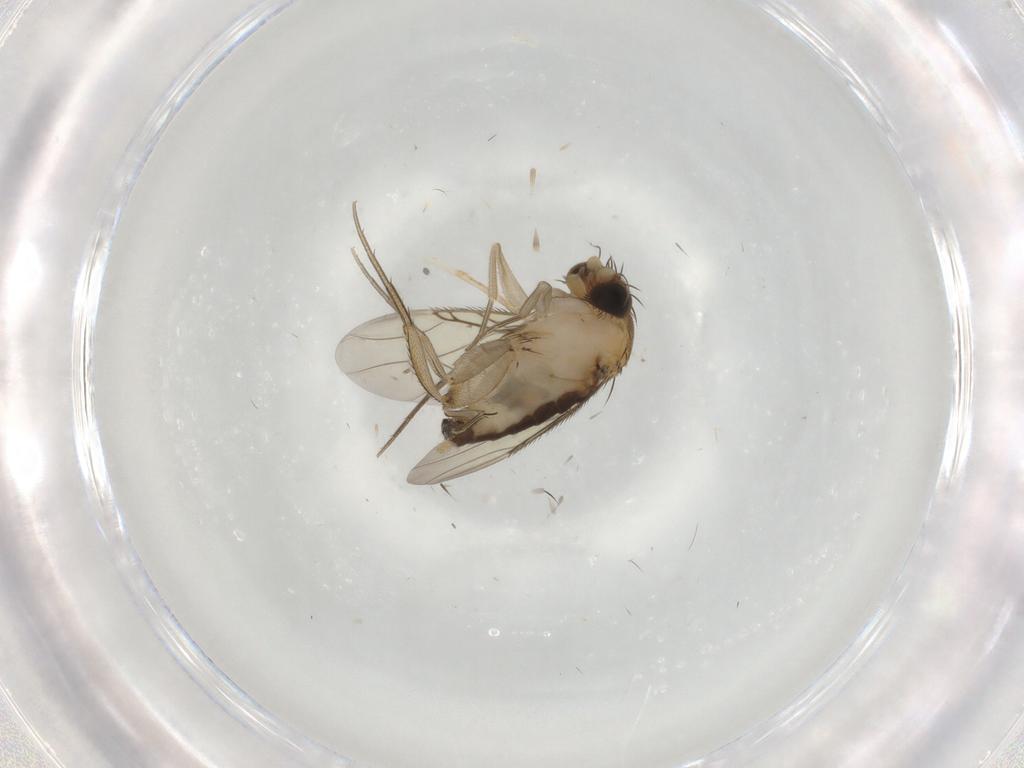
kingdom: Animalia
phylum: Arthropoda
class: Insecta
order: Diptera
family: Phoridae
